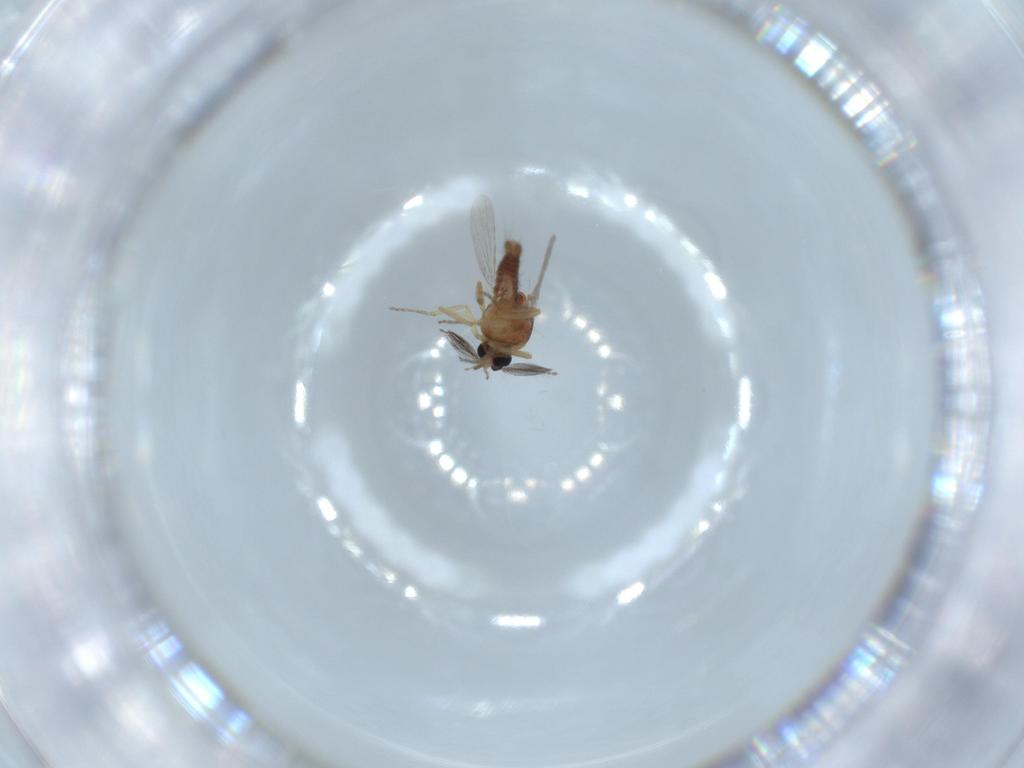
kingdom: Animalia
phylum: Arthropoda
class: Insecta
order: Diptera
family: Ceratopogonidae
